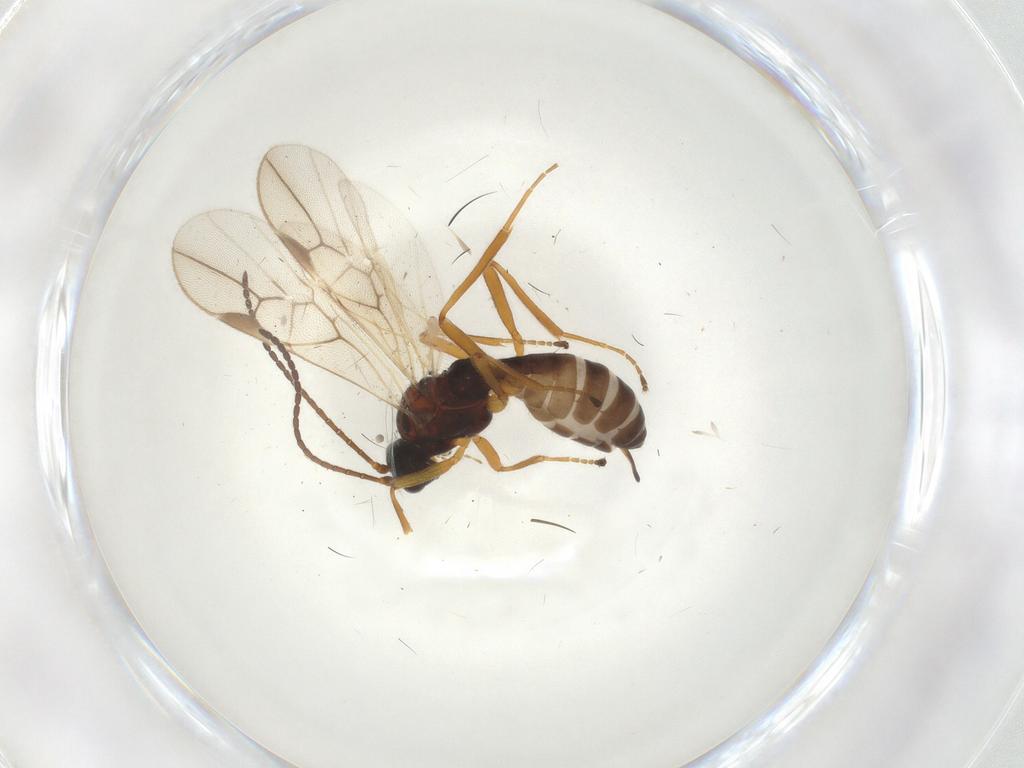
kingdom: Animalia
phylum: Arthropoda
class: Insecta
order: Hymenoptera
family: Braconidae
